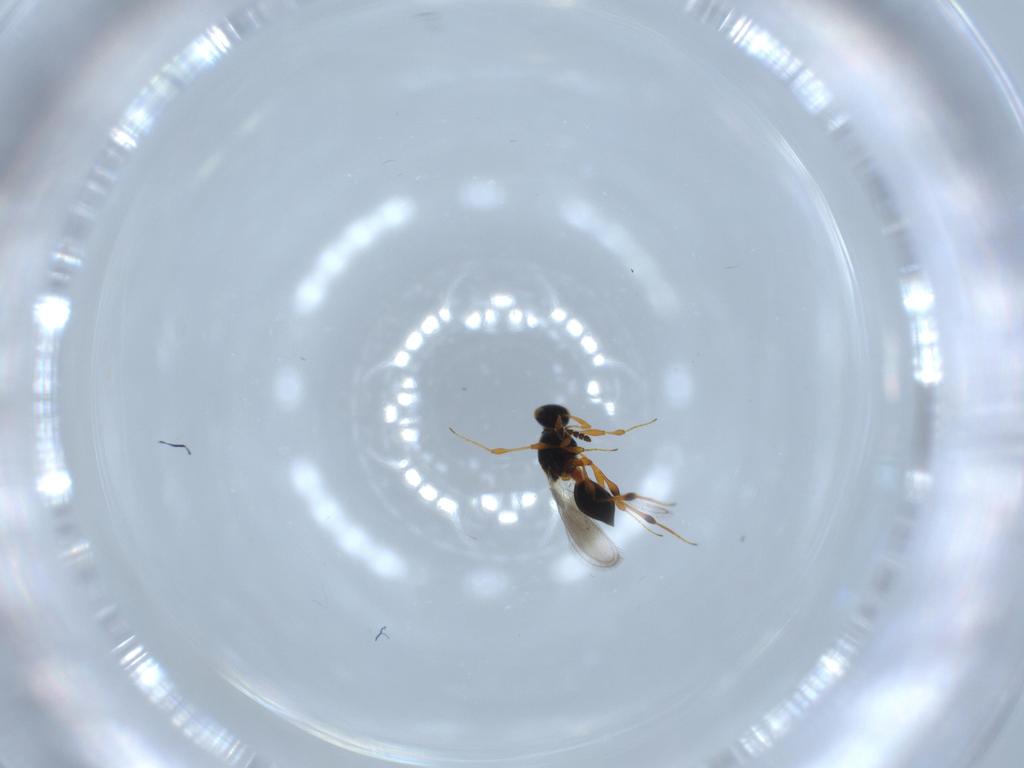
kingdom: Animalia
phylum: Arthropoda
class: Insecta
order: Hymenoptera
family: Platygastridae
